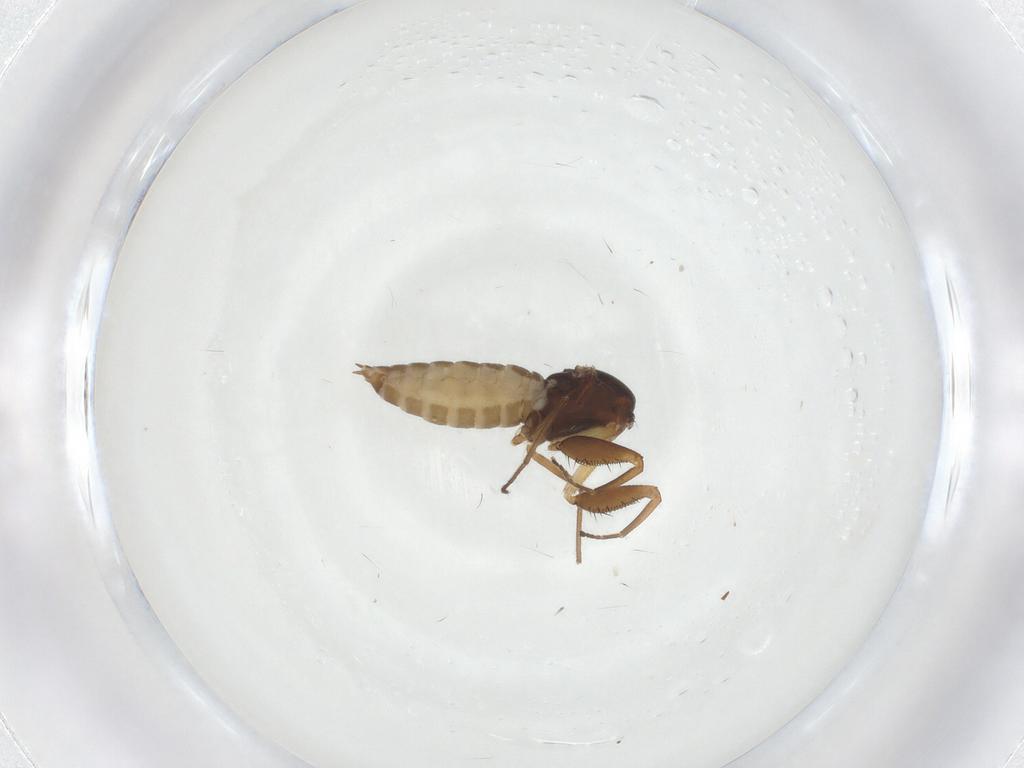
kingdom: Animalia
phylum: Arthropoda
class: Insecta
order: Diptera
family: Empididae
